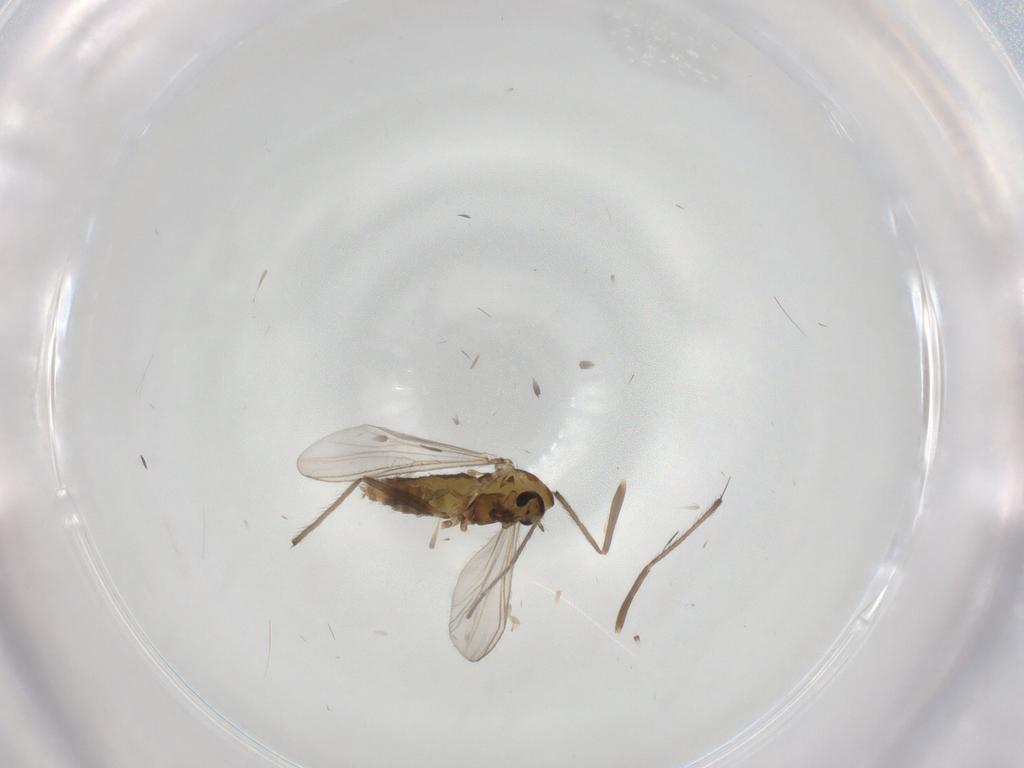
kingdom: Animalia
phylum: Arthropoda
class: Insecta
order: Diptera
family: Chironomidae
